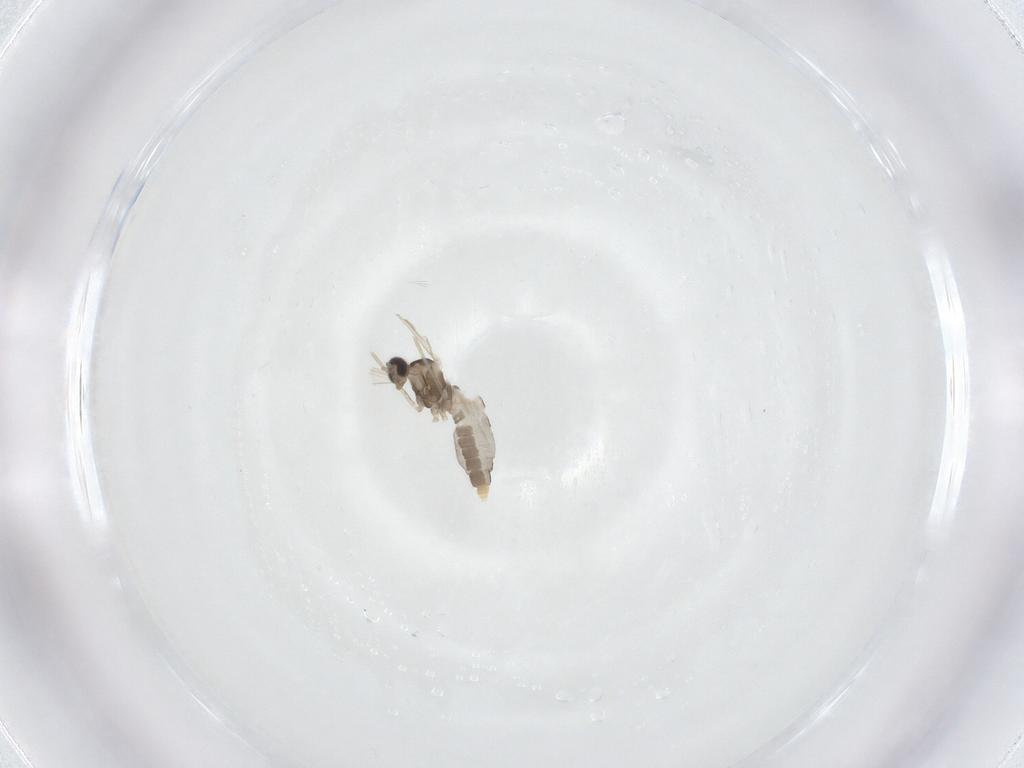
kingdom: Animalia
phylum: Arthropoda
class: Insecta
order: Diptera
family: Cecidomyiidae
